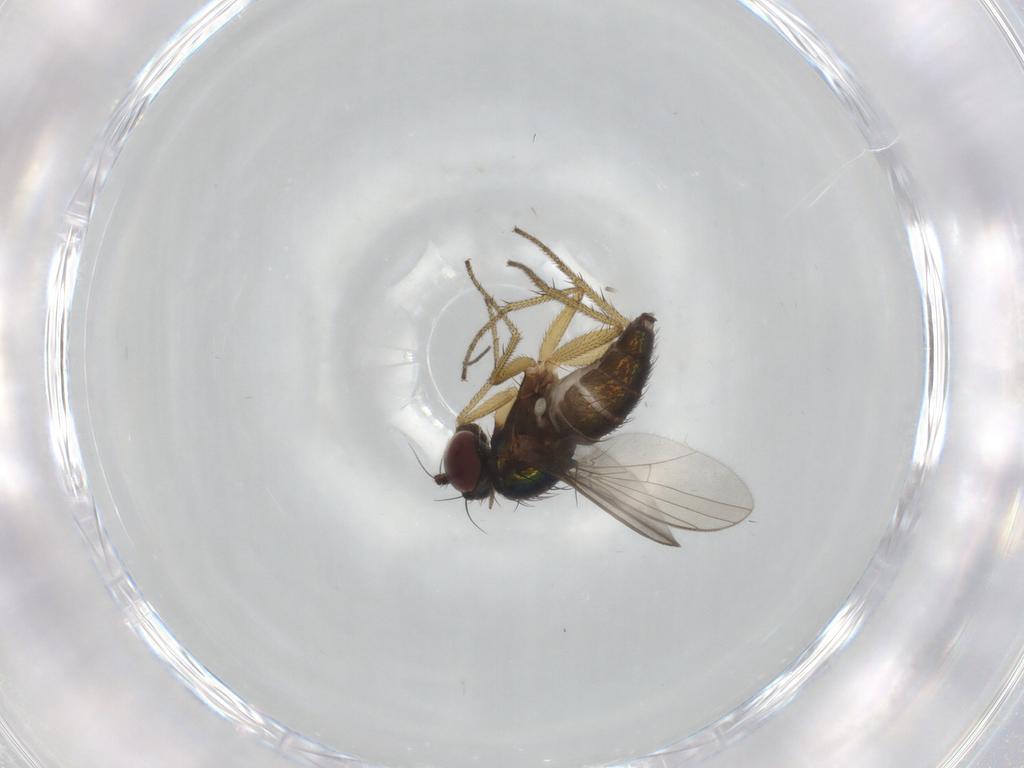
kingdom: Animalia
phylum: Arthropoda
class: Insecta
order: Diptera
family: Chironomidae
